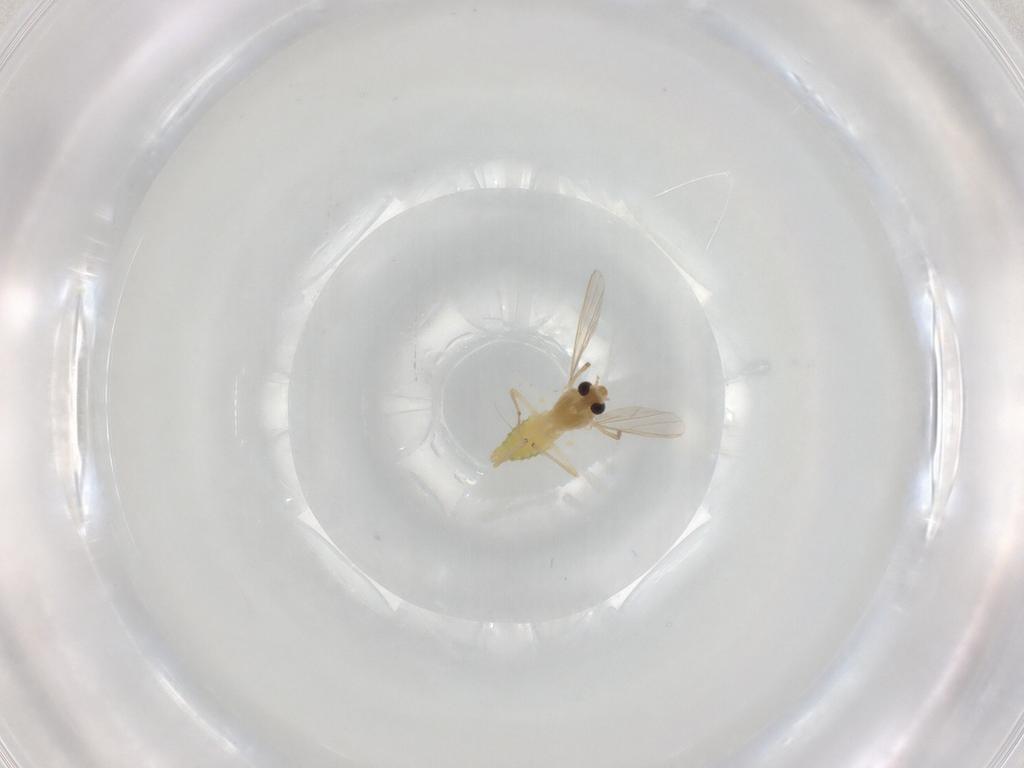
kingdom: Animalia
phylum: Arthropoda
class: Insecta
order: Diptera
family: Chironomidae
